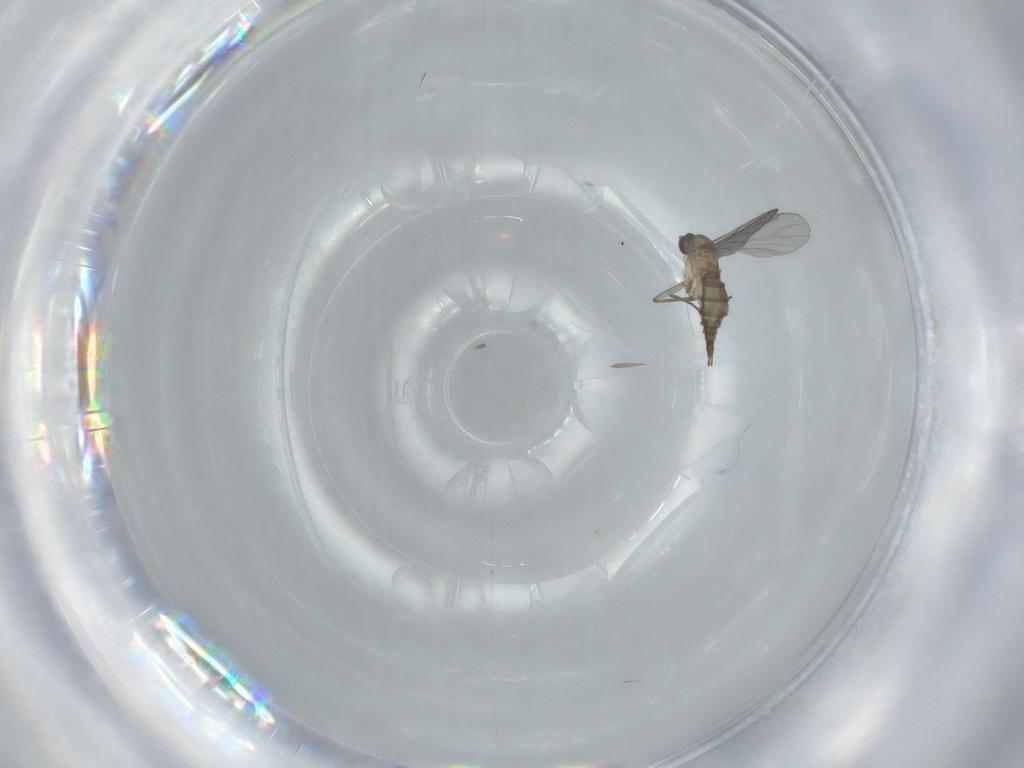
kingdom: Animalia
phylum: Arthropoda
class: Insecta
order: Diptera
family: Sciaridae
